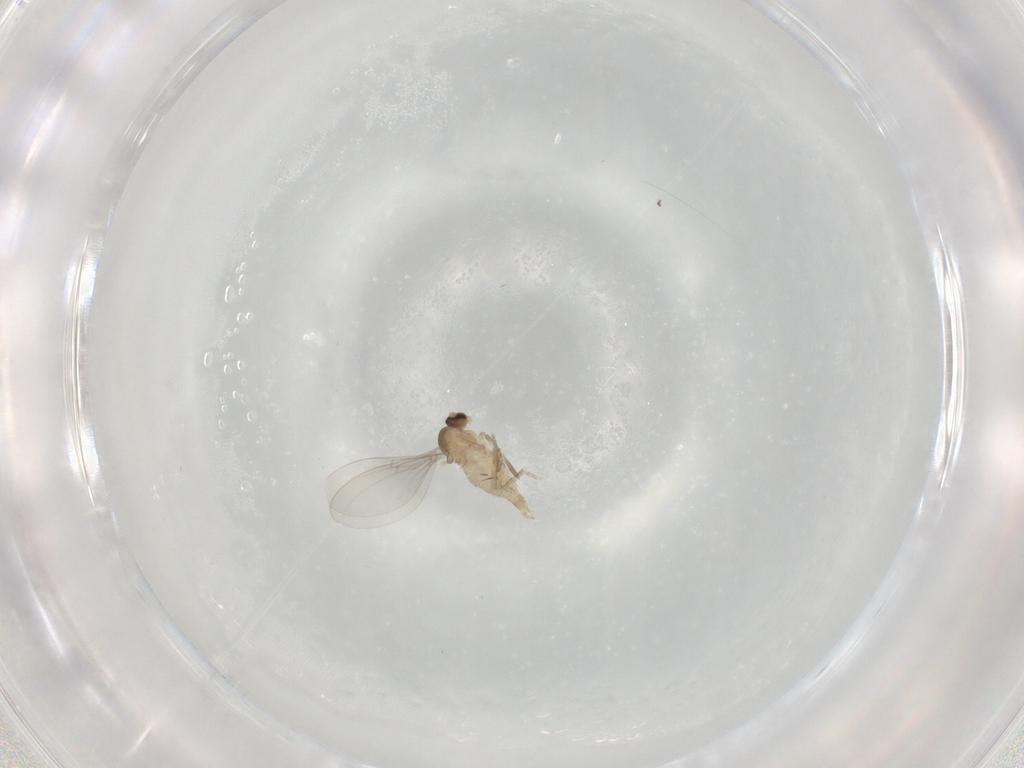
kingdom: Animalia
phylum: Arthropoda
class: Insecta
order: Diptera
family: Cecidomyiidae
